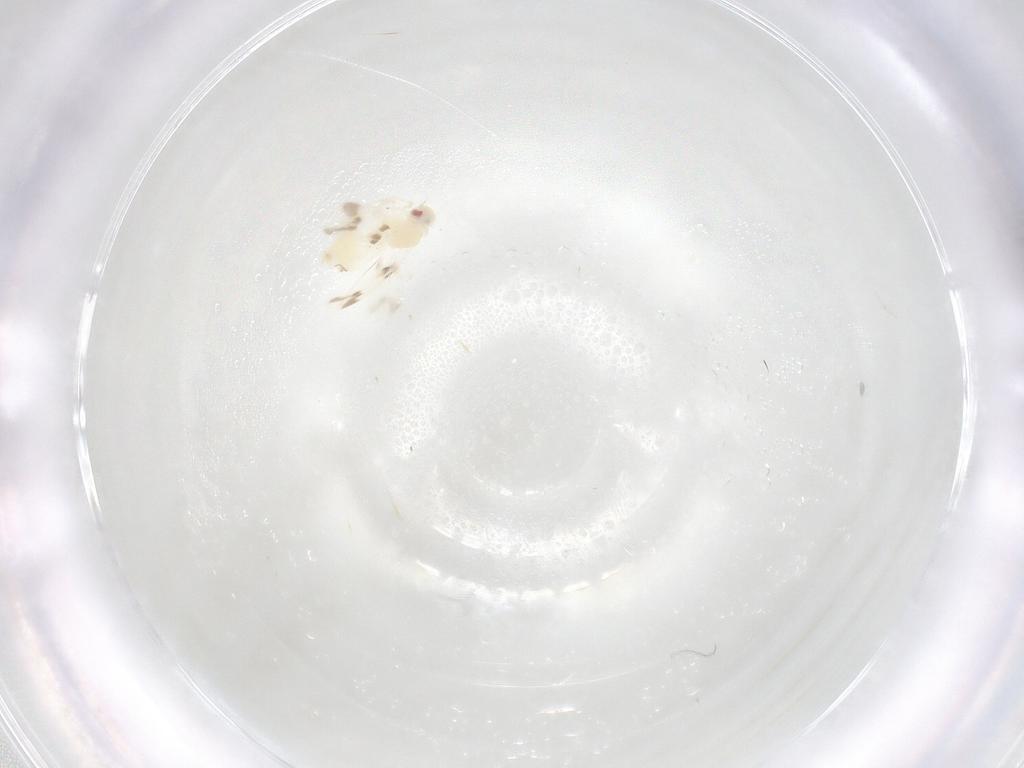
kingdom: Animalia
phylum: Arthropoda
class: Insecta
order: Hemiptera
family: Aleyrodidae
